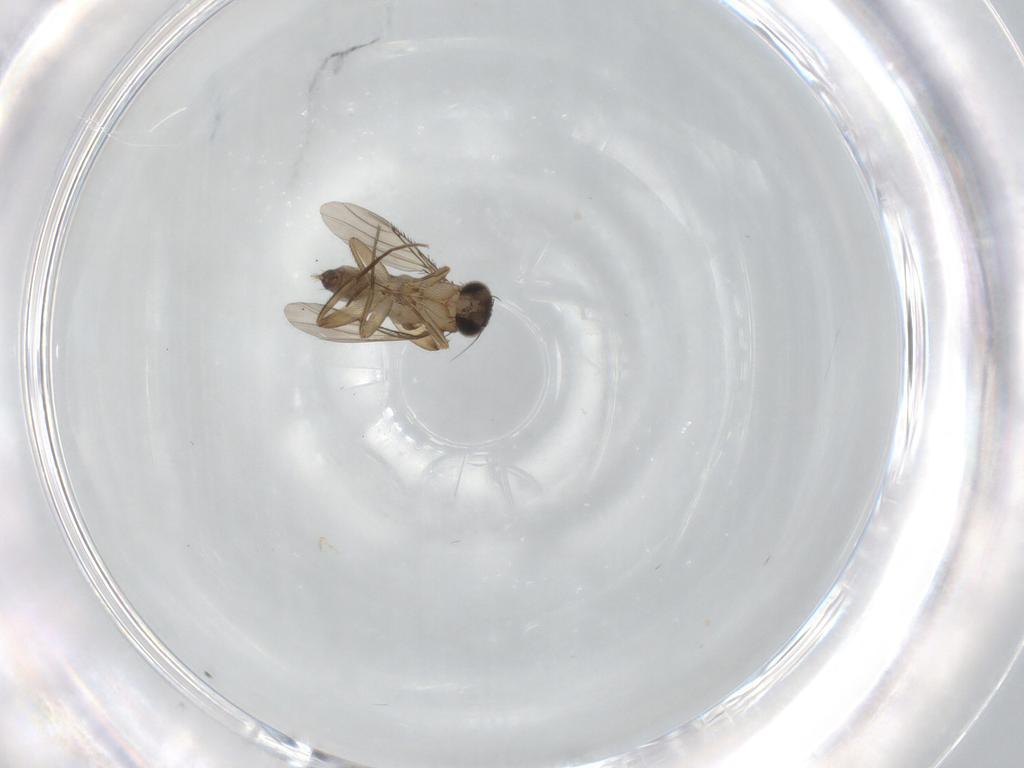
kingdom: Animalia
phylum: Arthropoda
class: Insecta
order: Diptera
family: Phoridae
